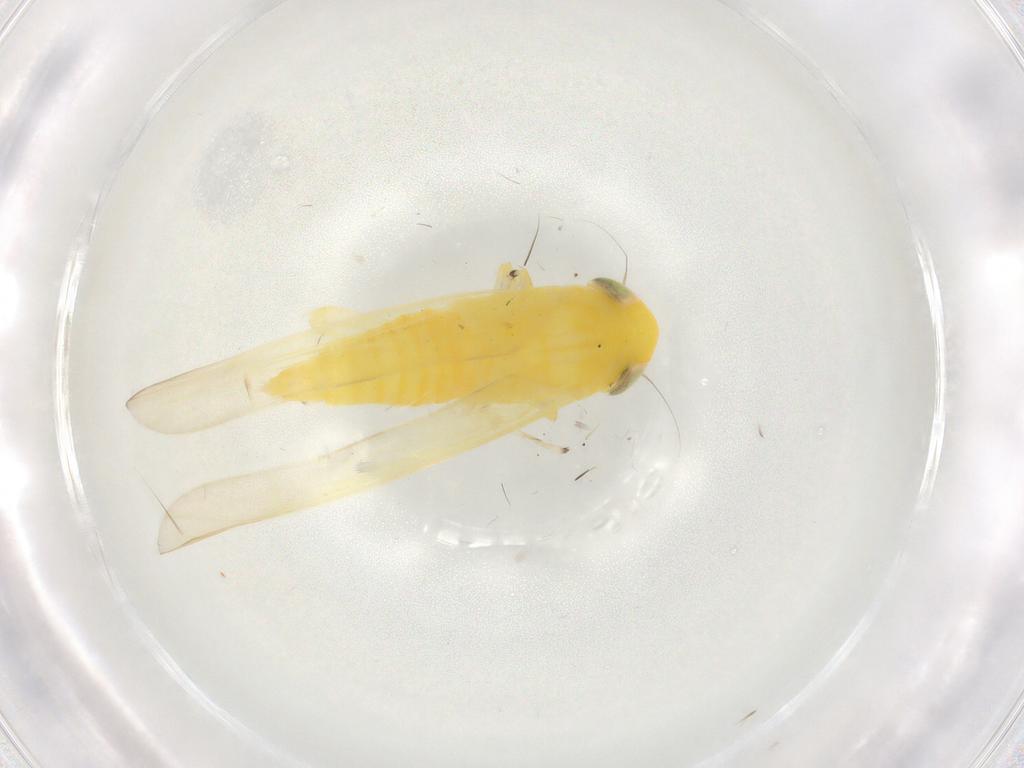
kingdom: Animalia
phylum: Arthropoda
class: Insecta
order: Hemiptera
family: Cicadellidae
